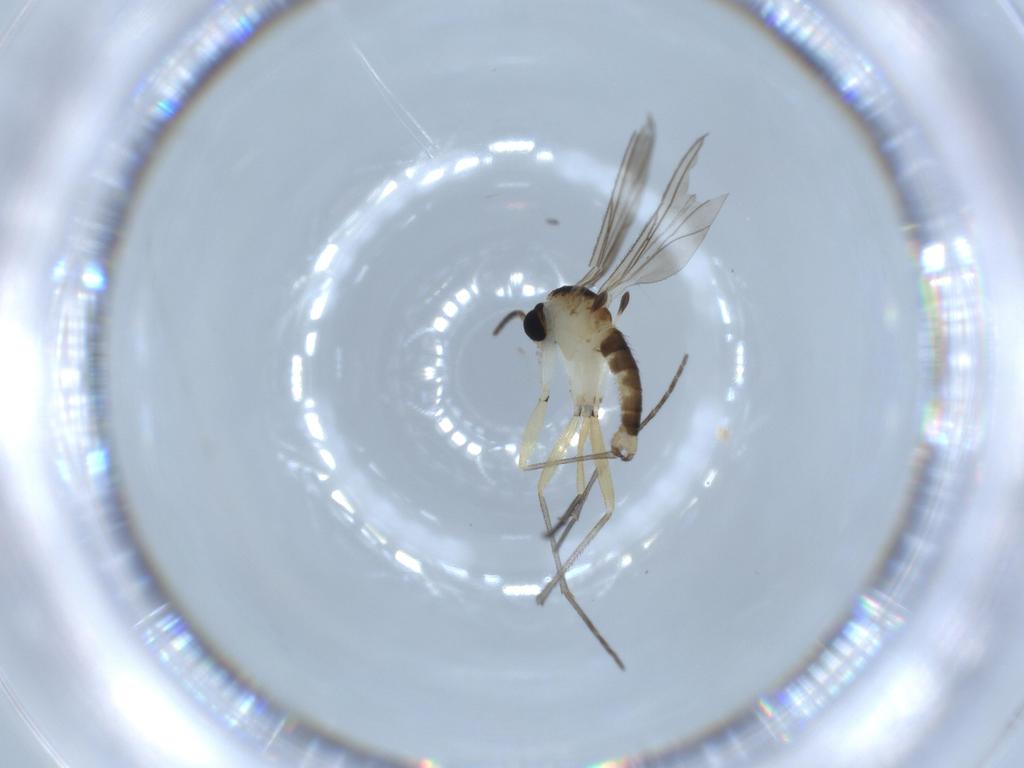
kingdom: Animalia
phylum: Arthropoda
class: Insecta
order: Diptera
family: Sciaridae
